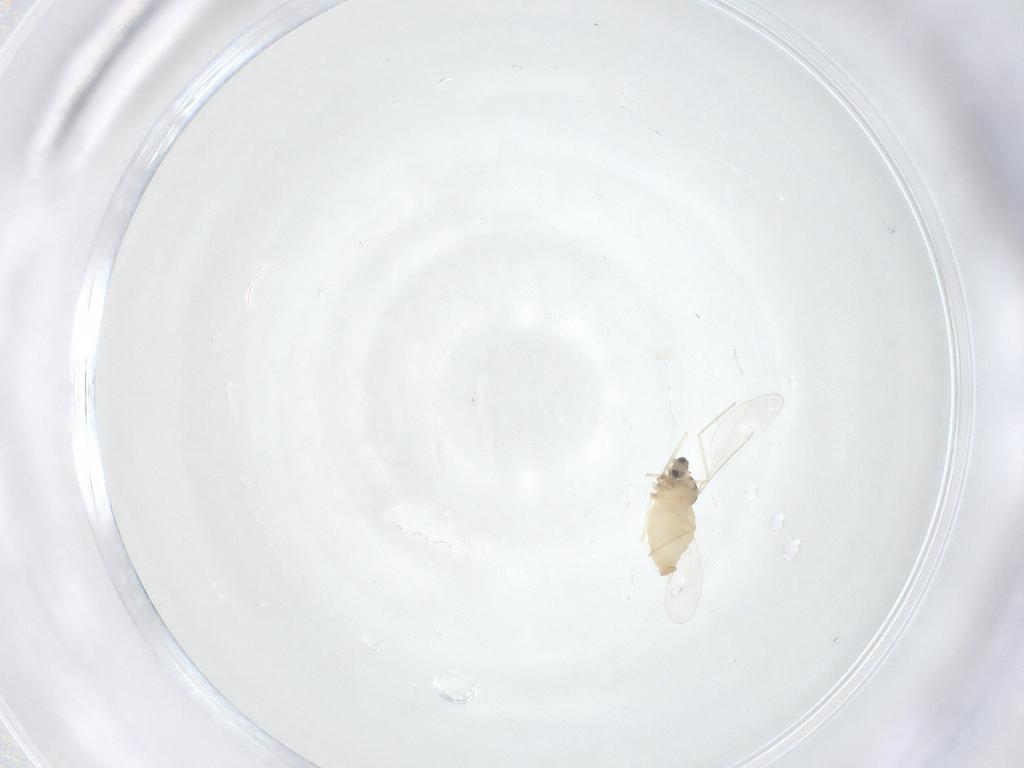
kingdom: Animalia
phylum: Arthropoda
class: Insecta
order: Diptera
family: Cecidomyiidae
